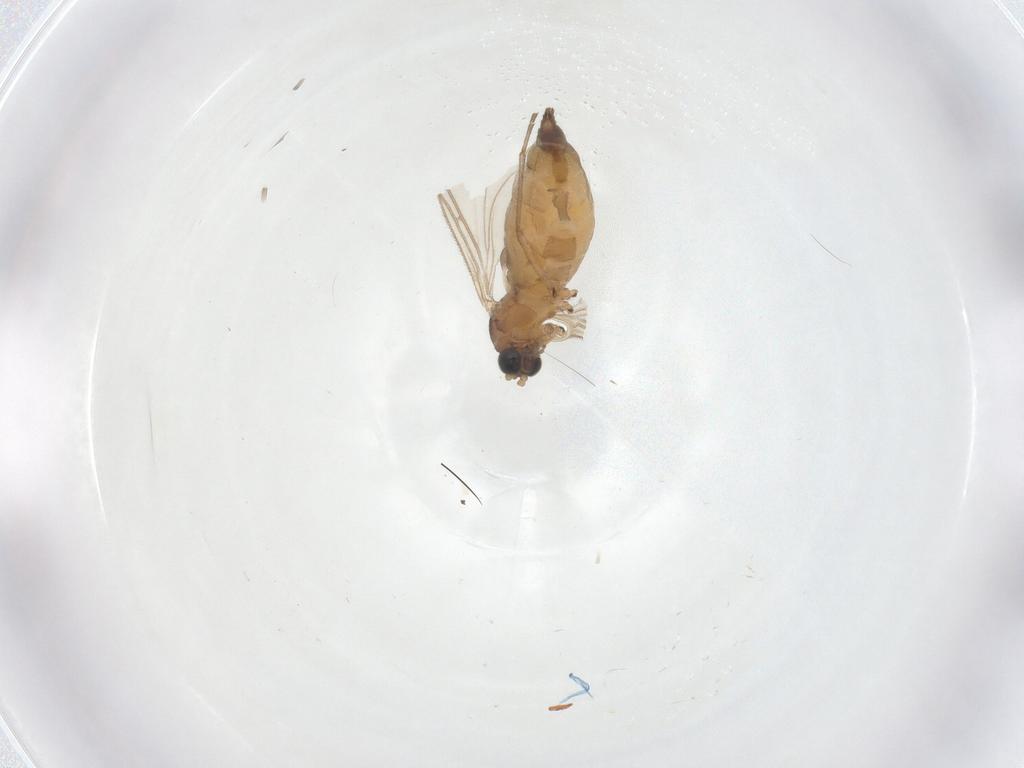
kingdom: Animalia
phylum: Arthropoda
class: Insecta
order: Diptera
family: Sciaridae
